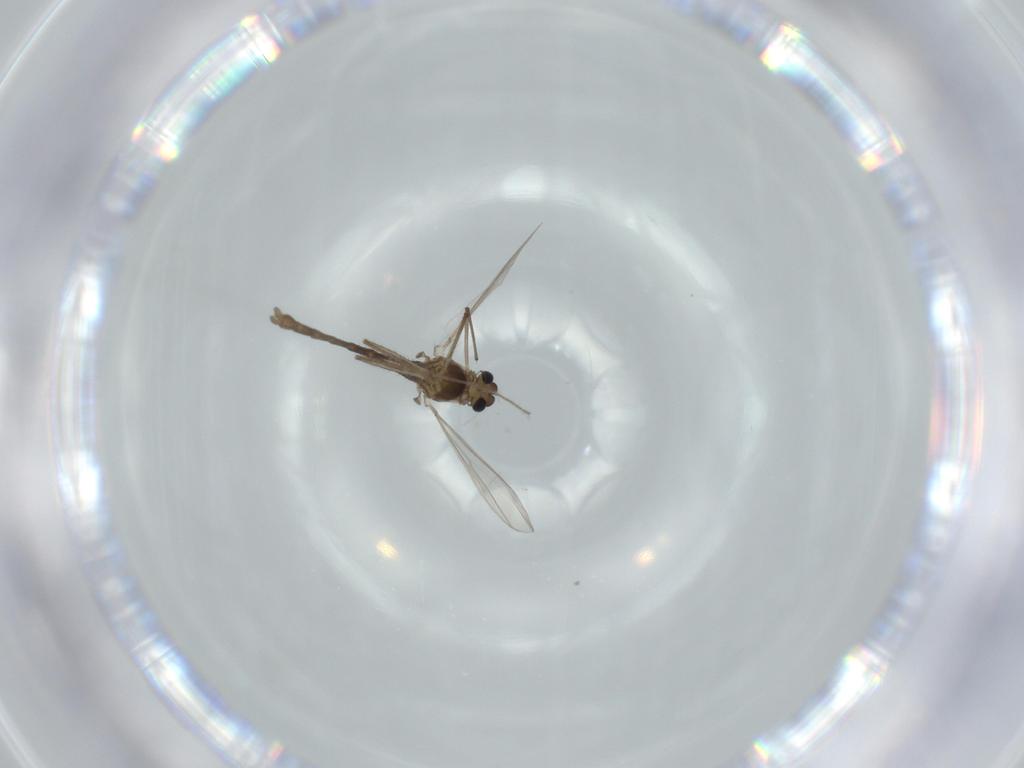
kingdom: Animalia
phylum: Arthropoda
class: Insecta
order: Diptera
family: Chironomidae
